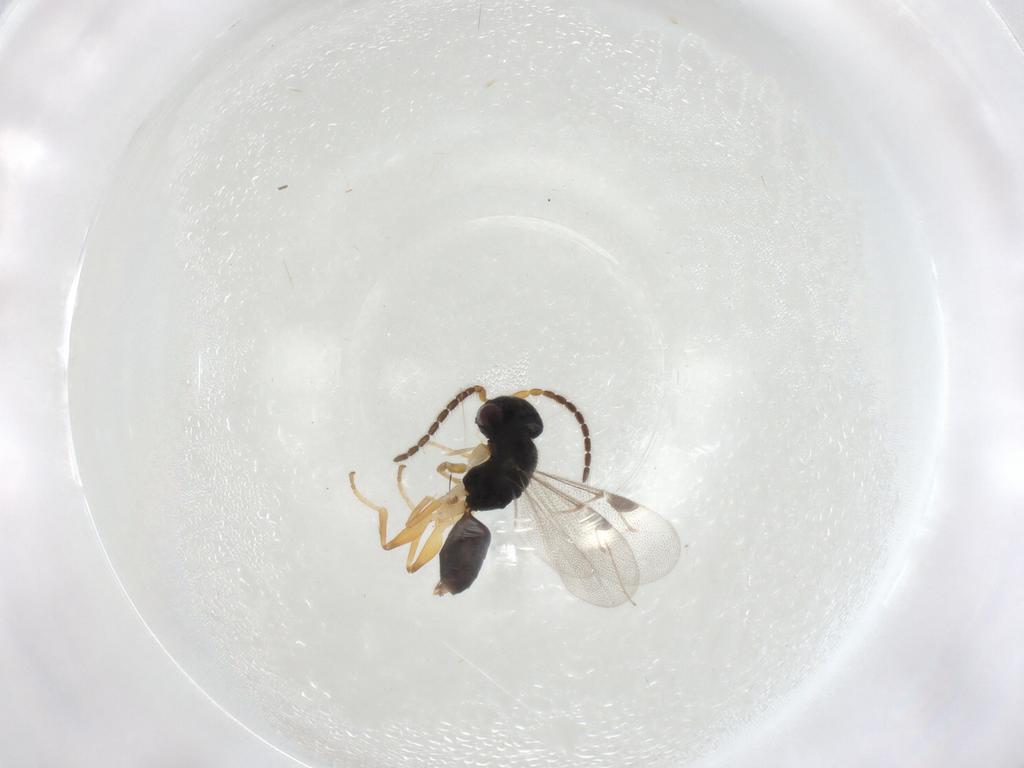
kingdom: Animalia
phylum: Arthropoda
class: Insecta
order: Hymenoptera
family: Dryinidae
